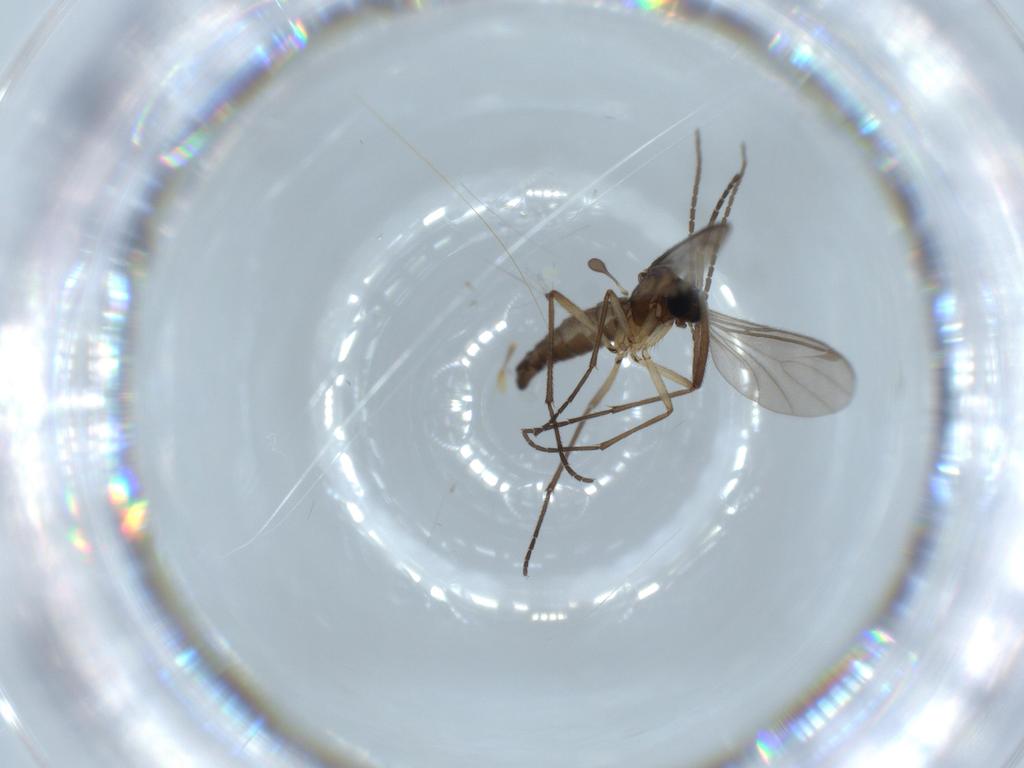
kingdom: Animalia
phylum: Arthropoda
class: Insecta
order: Diptera
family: Chironomidae
